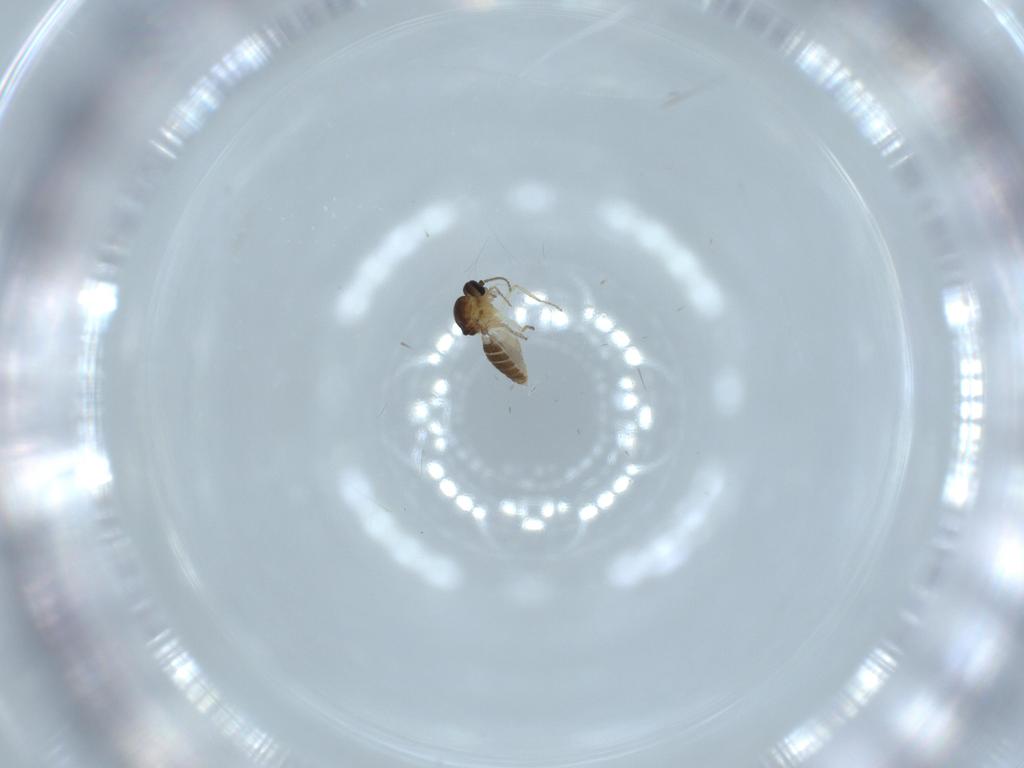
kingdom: Animalia
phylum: Arthropoda
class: Insecta
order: Diptera
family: Ceratopogonidae
